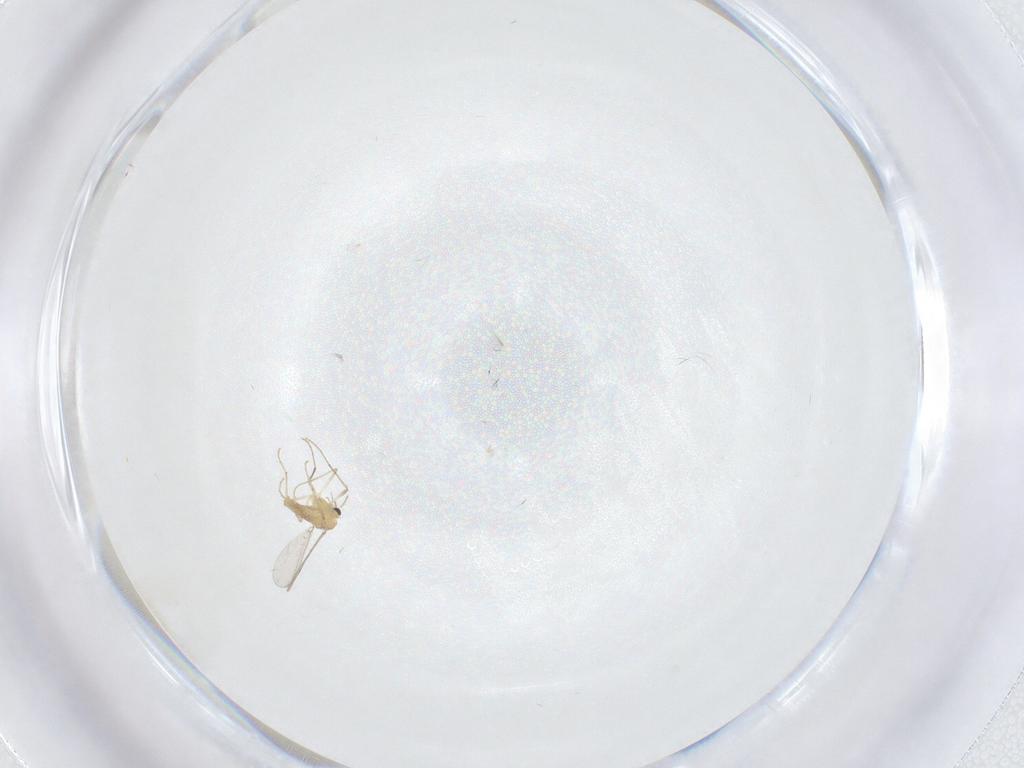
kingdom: Animalia
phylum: Arthropoda
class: Insecta
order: Diptera
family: Chironomidae
